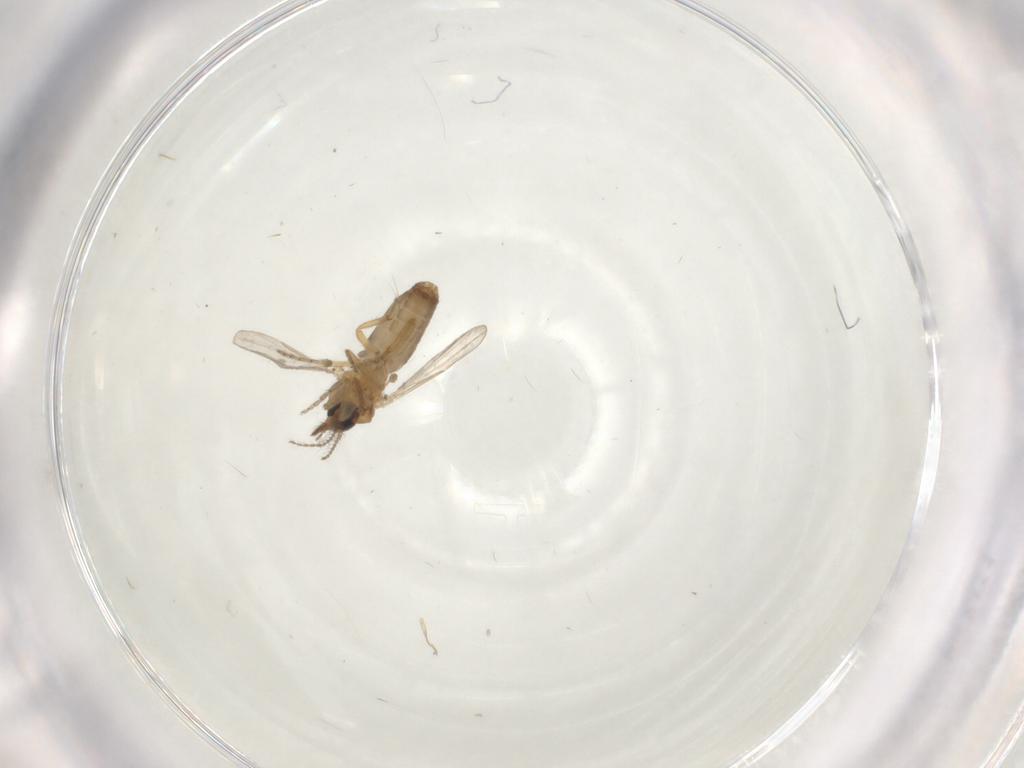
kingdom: Animalia
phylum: Arthropoda
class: Insecta
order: Diptera
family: Ceratopogonidae
